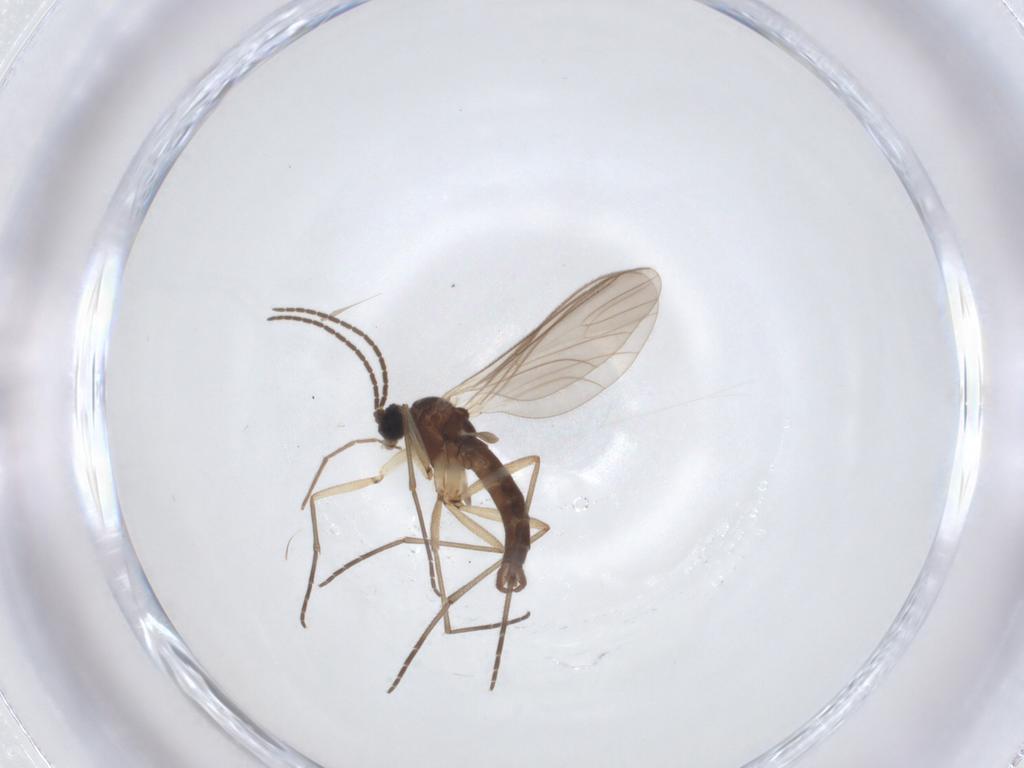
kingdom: Animalia
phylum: Arthropoda
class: Insecta
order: Diptera
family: Sciaridae
